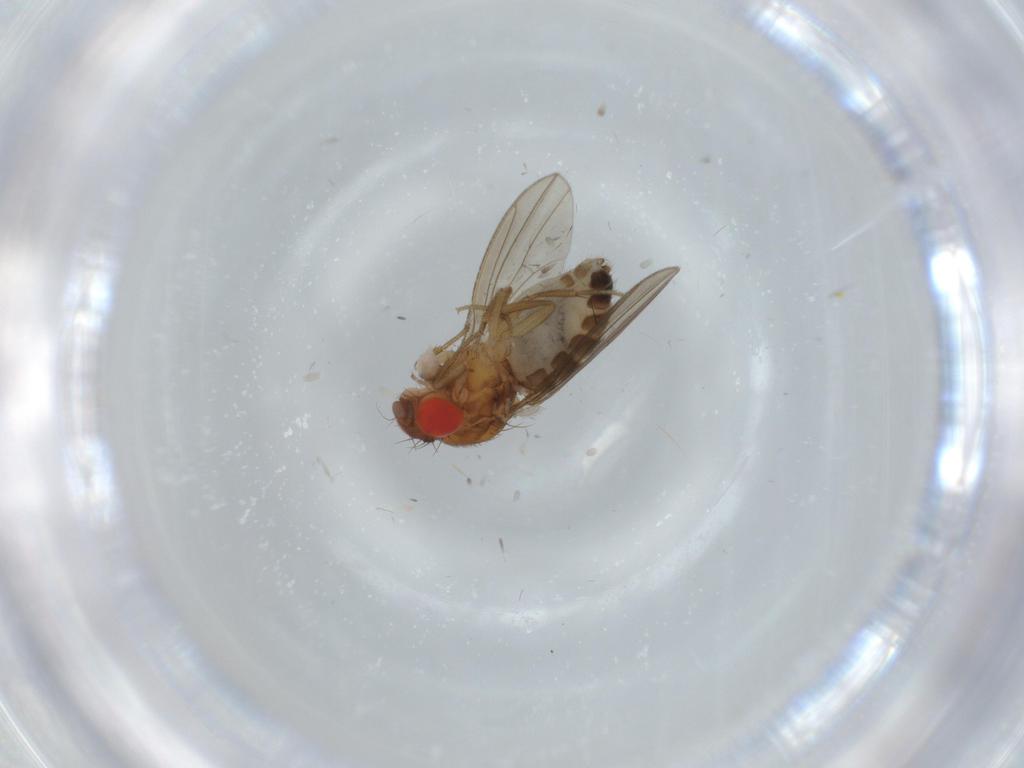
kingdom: Animalia
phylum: Arthropoda
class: Insecta
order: Diptera
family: Drosophilidae
